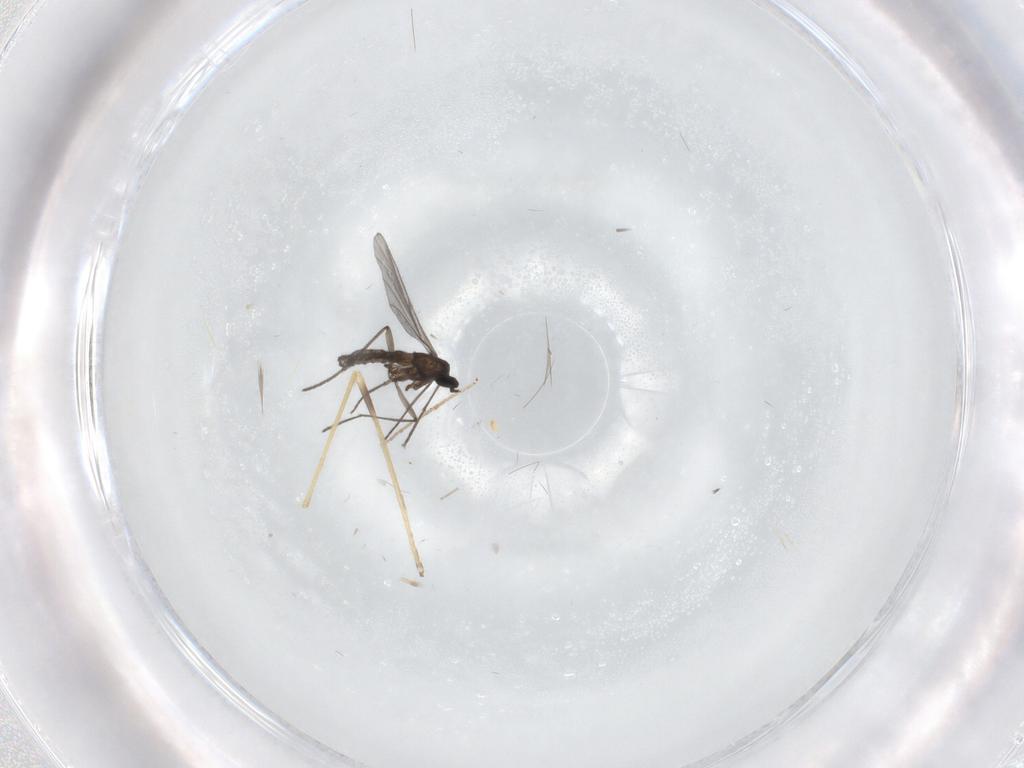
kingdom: Animalia
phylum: Arthropoda
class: Insecta
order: Diptera
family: Limoniidae
